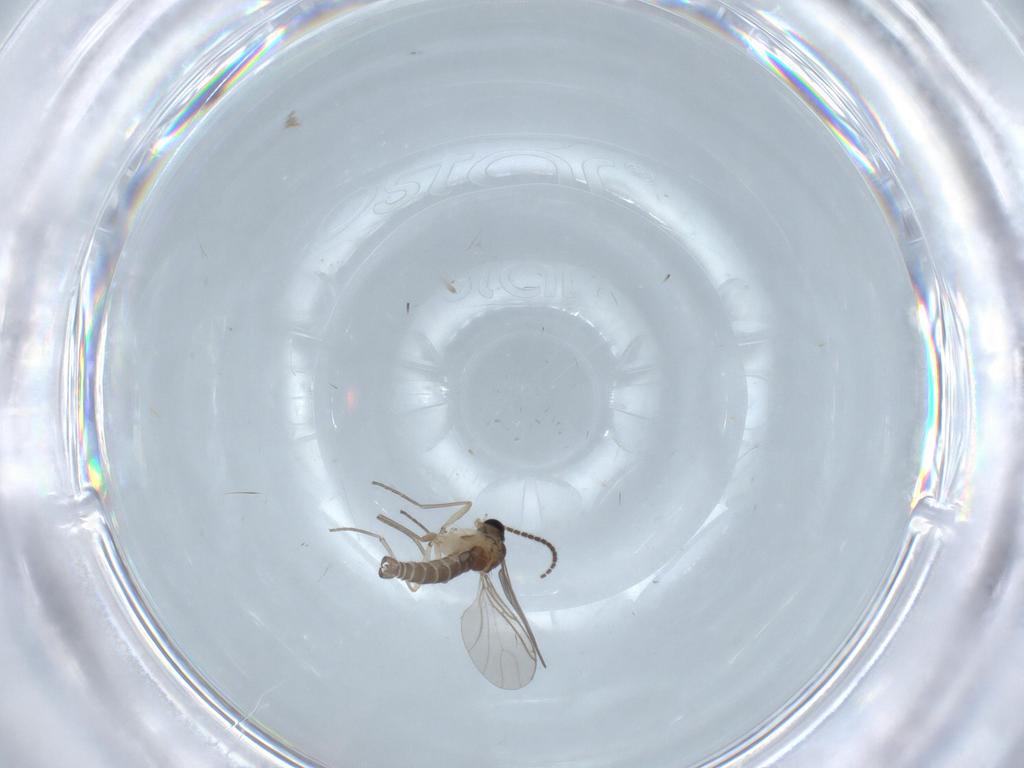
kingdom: Animalia
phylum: Arthropoda
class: Insecta
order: Diptera
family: Sciaridae
